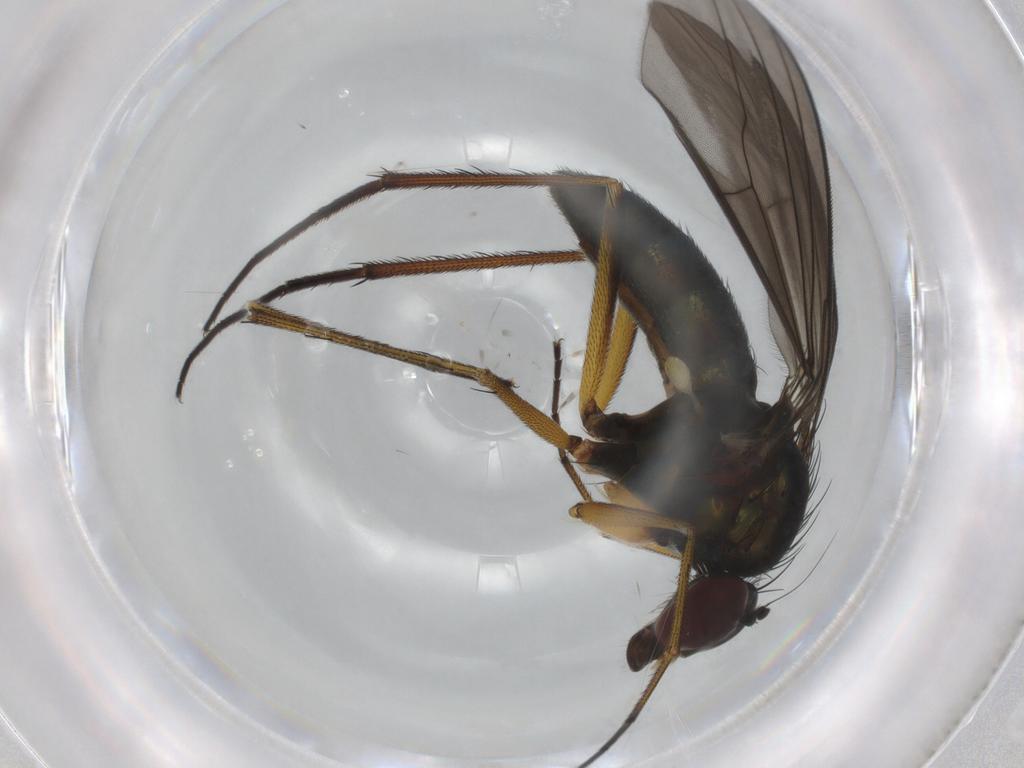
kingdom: Animalia
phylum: Arthropoda
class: Insecta
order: Diptera
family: Dolichopodidae
